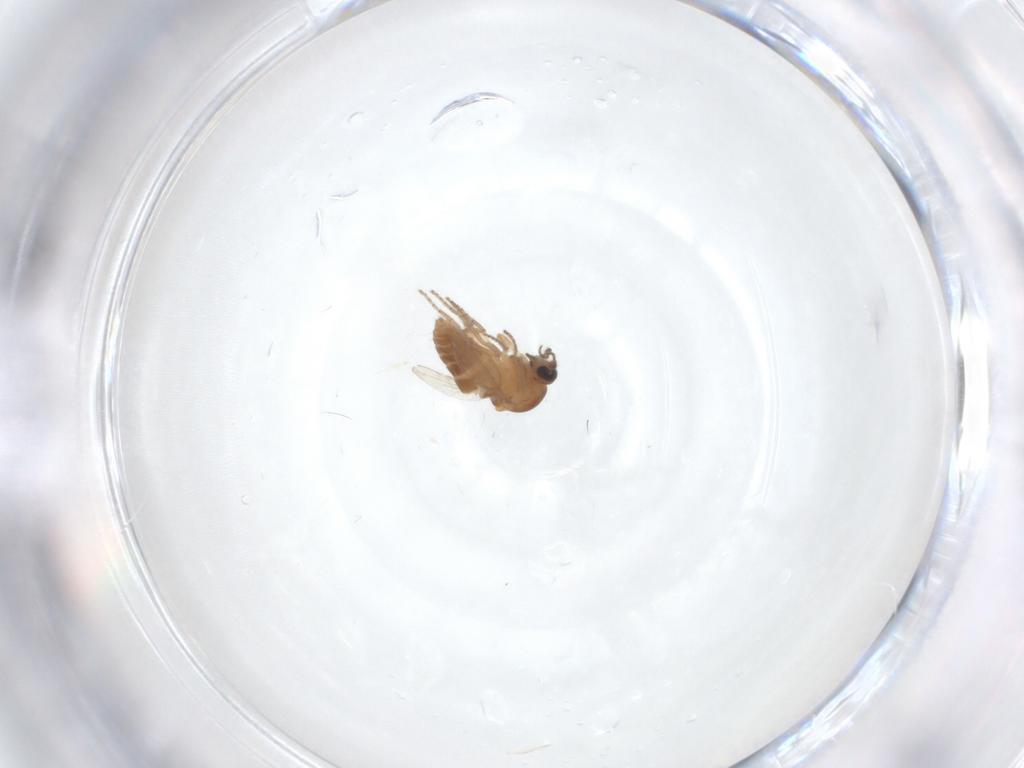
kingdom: Animalia
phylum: Arthropoda
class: Insecta
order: Diptera
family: Ceratopogonidae
